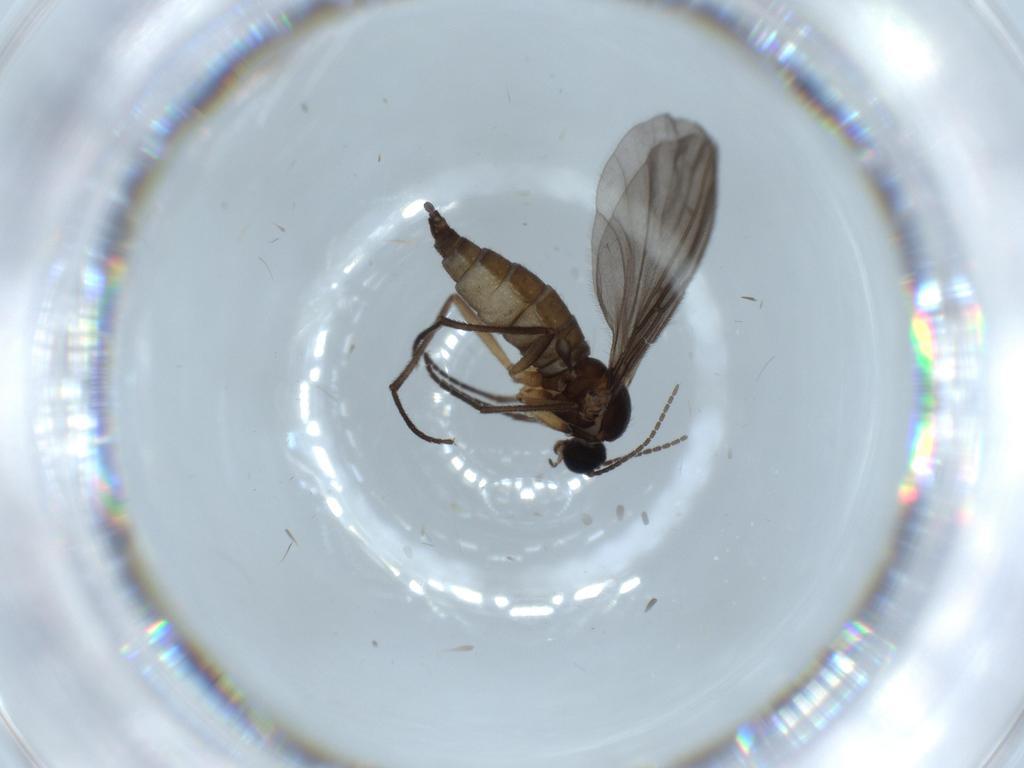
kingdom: Animalia
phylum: Arthropoda
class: Insecta
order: Diptera
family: Sciaridae
